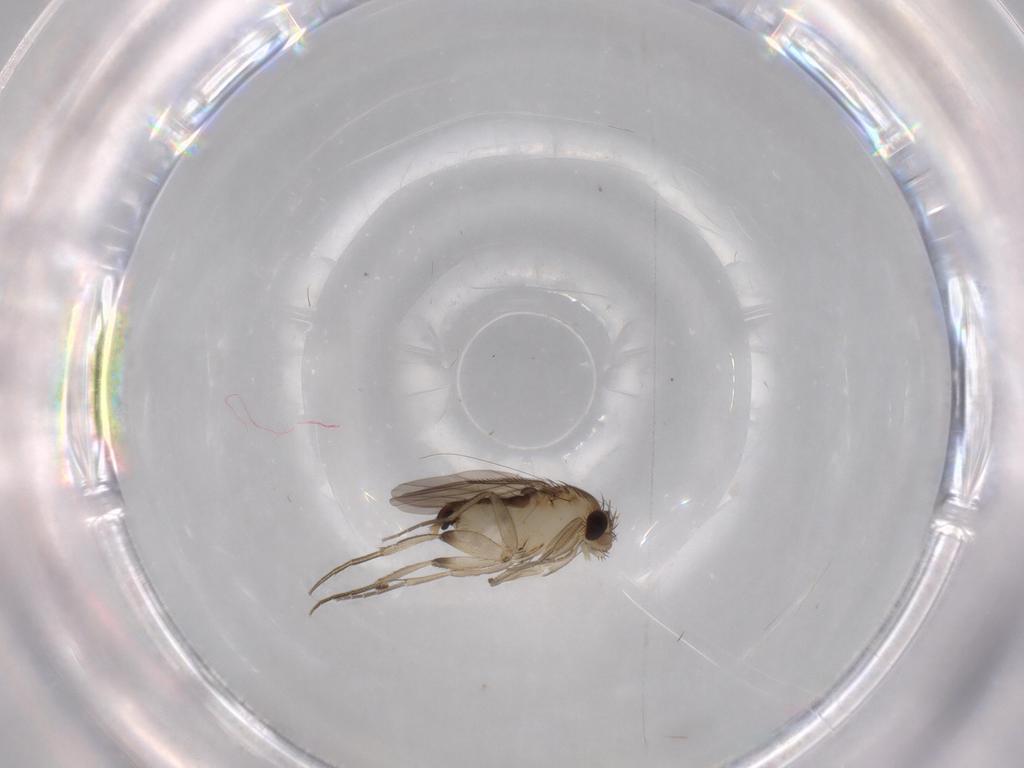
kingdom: Animalia
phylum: Arthropoda
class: Insecta
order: Diptera
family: Phoridae
